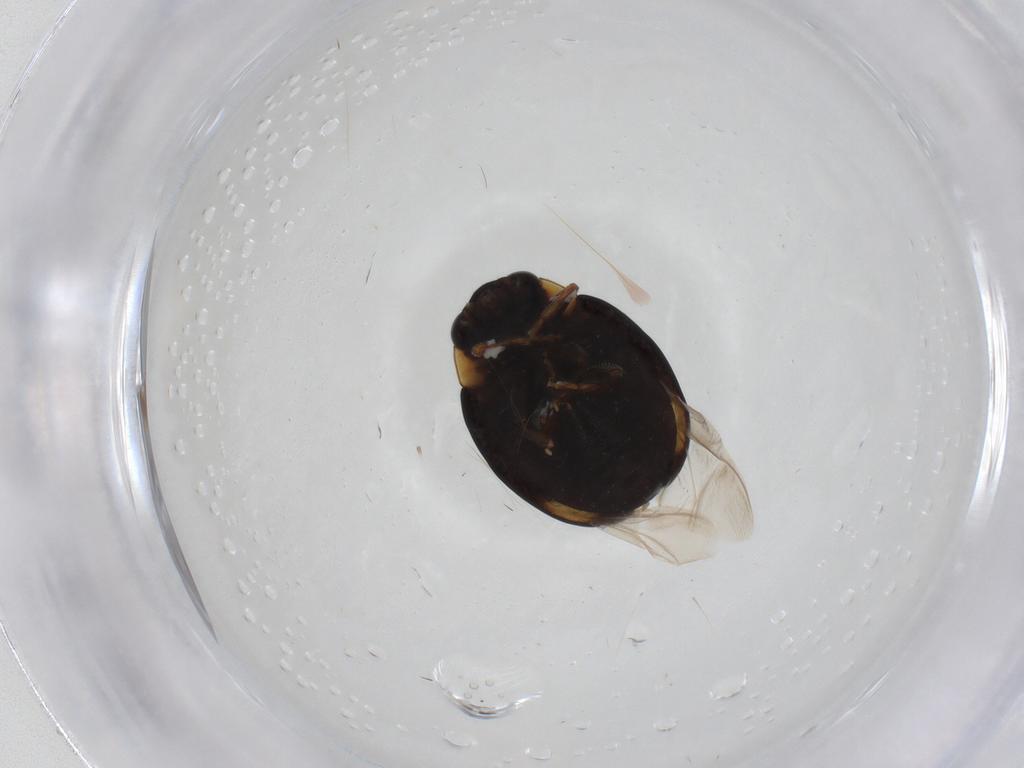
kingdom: Animalia
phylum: Arthropoda
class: Insecta
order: Coleoptera
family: Coccinellidae
